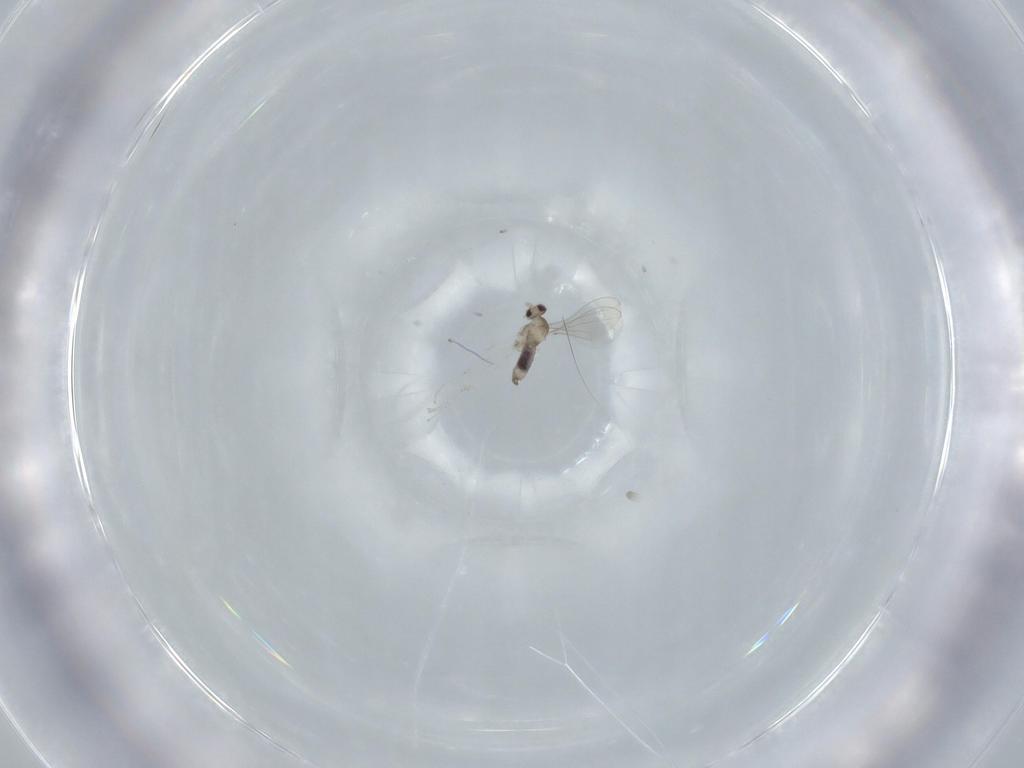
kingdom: Animalia
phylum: Arthropoda
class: Insecta
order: Diptera
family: Cecidomyiidae
